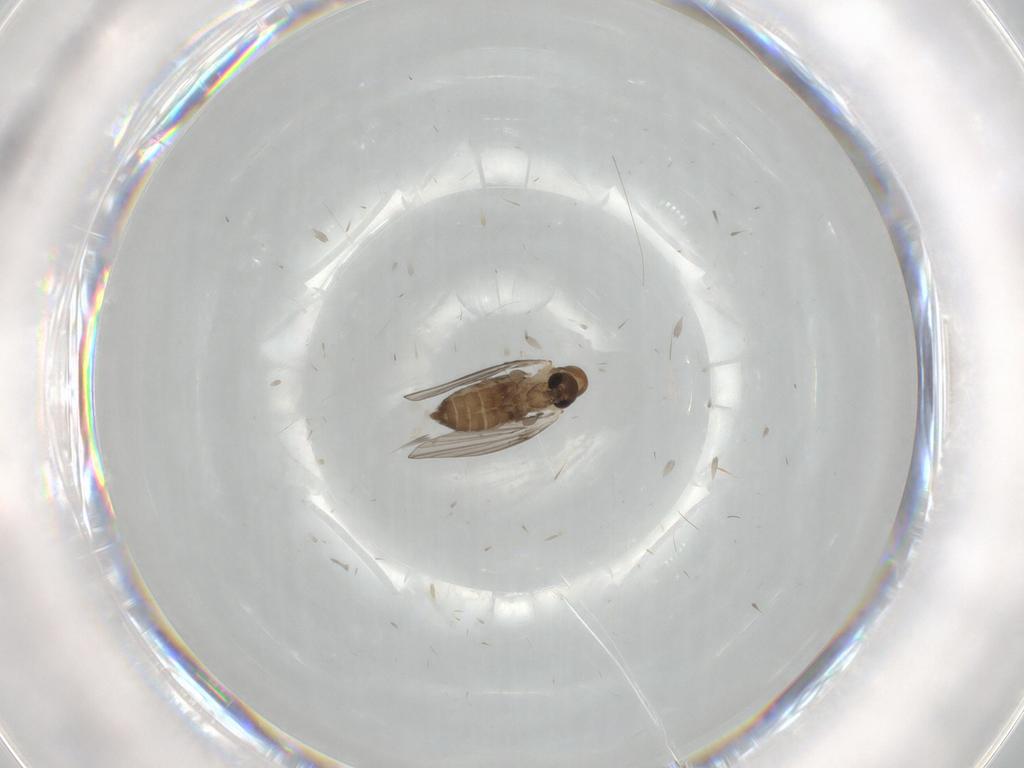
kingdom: Animalia
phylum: Arthropoda
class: Insecta
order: Diptera
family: Psychodidae
